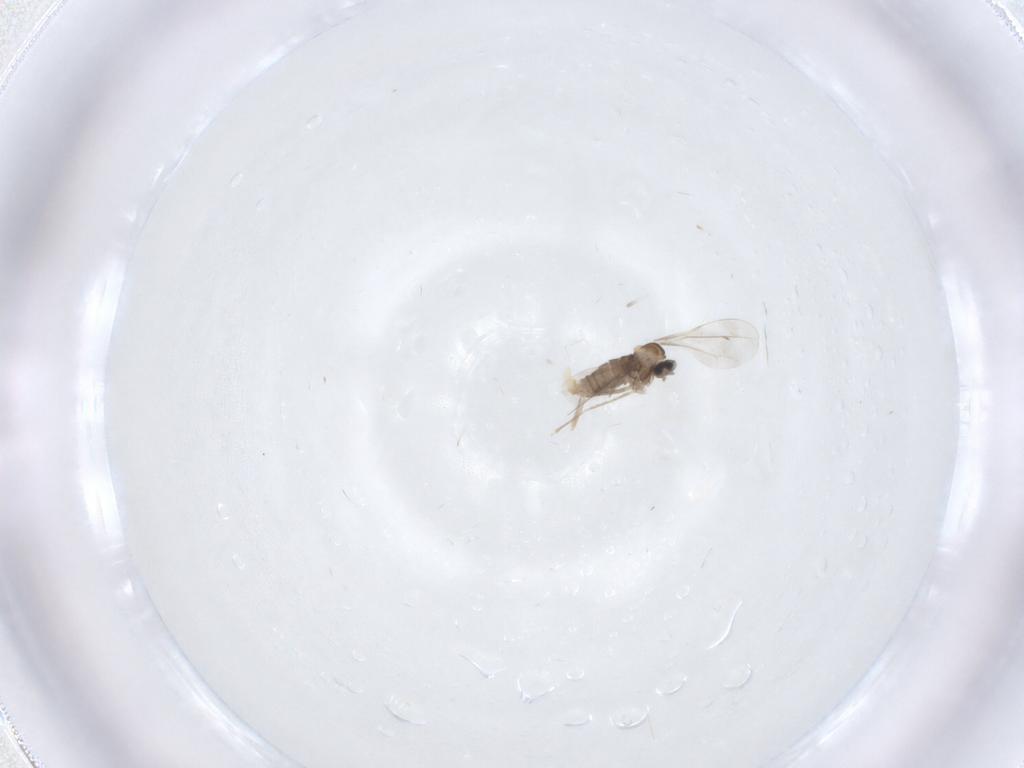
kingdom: Animalia
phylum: Arthropoda
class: Insecta
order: Diptera
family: Cecidomyiidae
